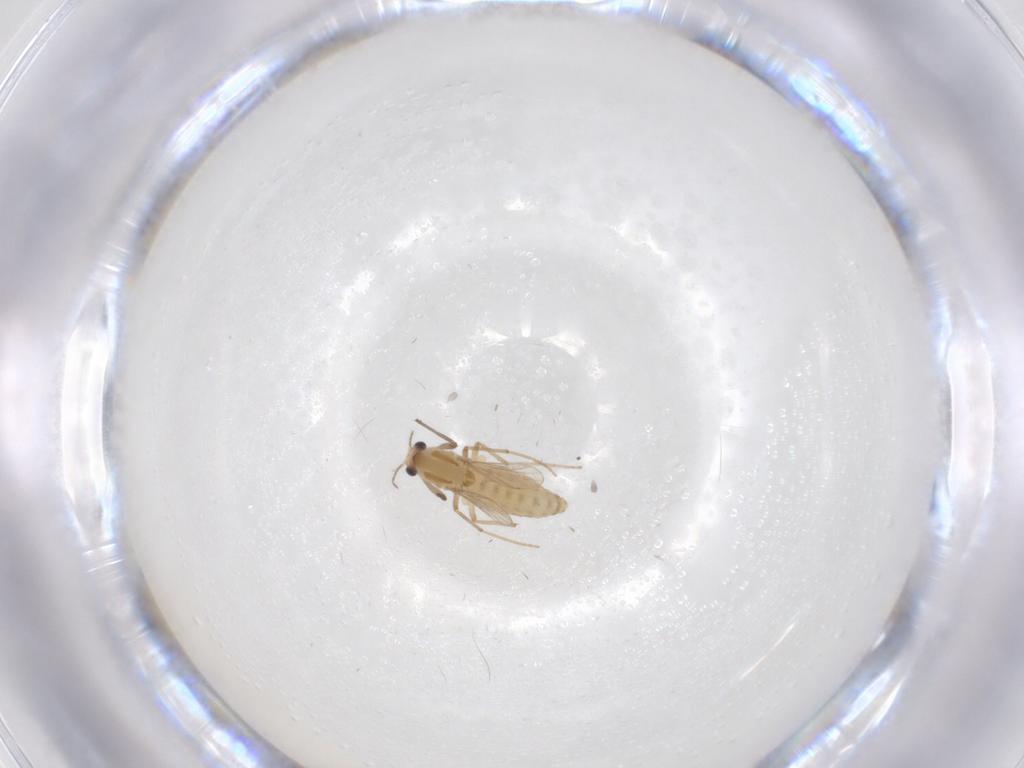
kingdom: Animalia
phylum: Arthropoda
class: Insecta
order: Diptera
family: Chironomidae
